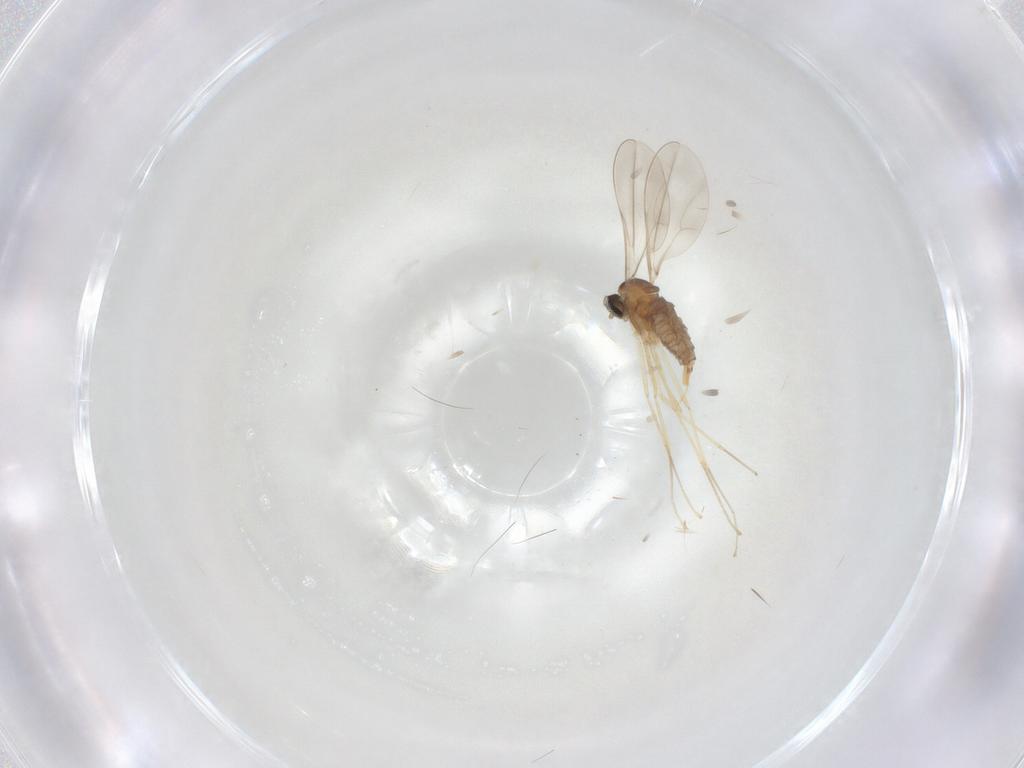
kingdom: Animalia
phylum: Arthropoda
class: Insecta
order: Diptera
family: Cecidomyiidae
